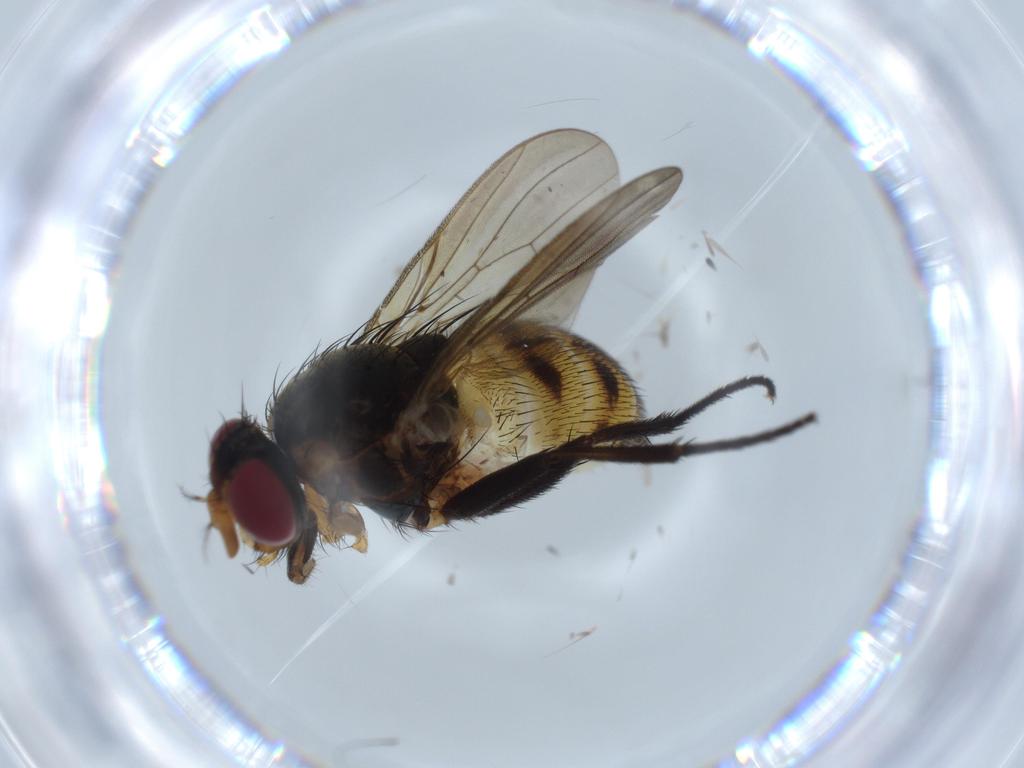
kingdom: Animalia
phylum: Arthropoda
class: Insecta
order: Diptera
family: Anthomyiidae
